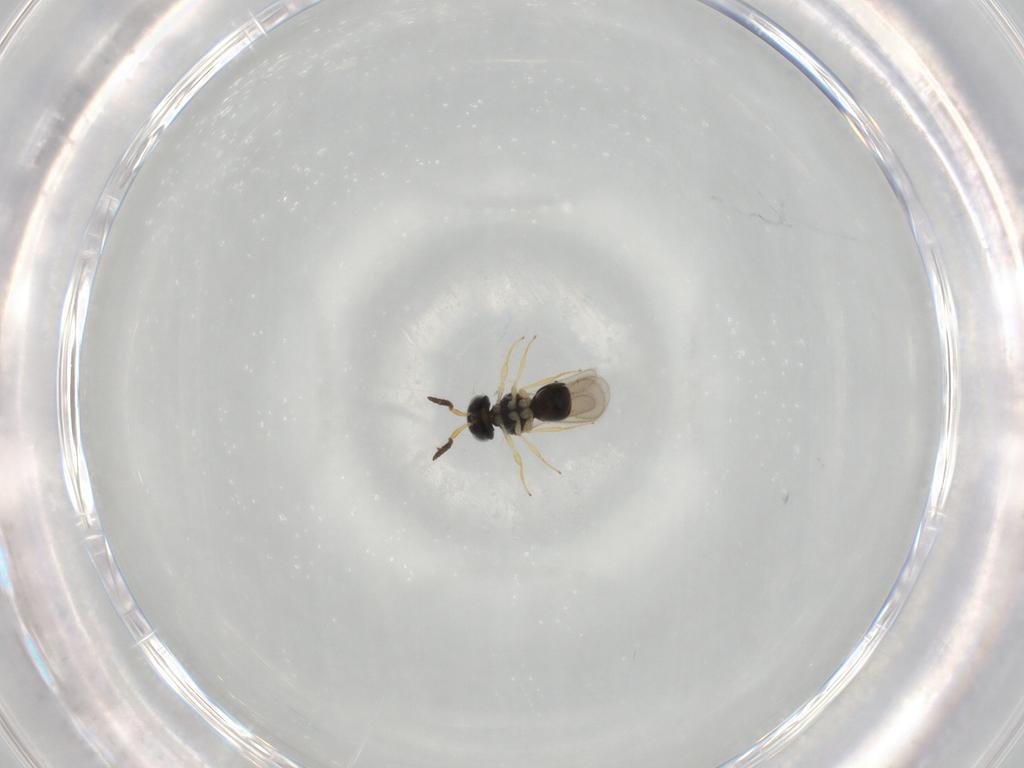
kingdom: Animalia
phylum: Arthropoda
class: Insecta
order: Hymenoptera
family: Scelionidae
